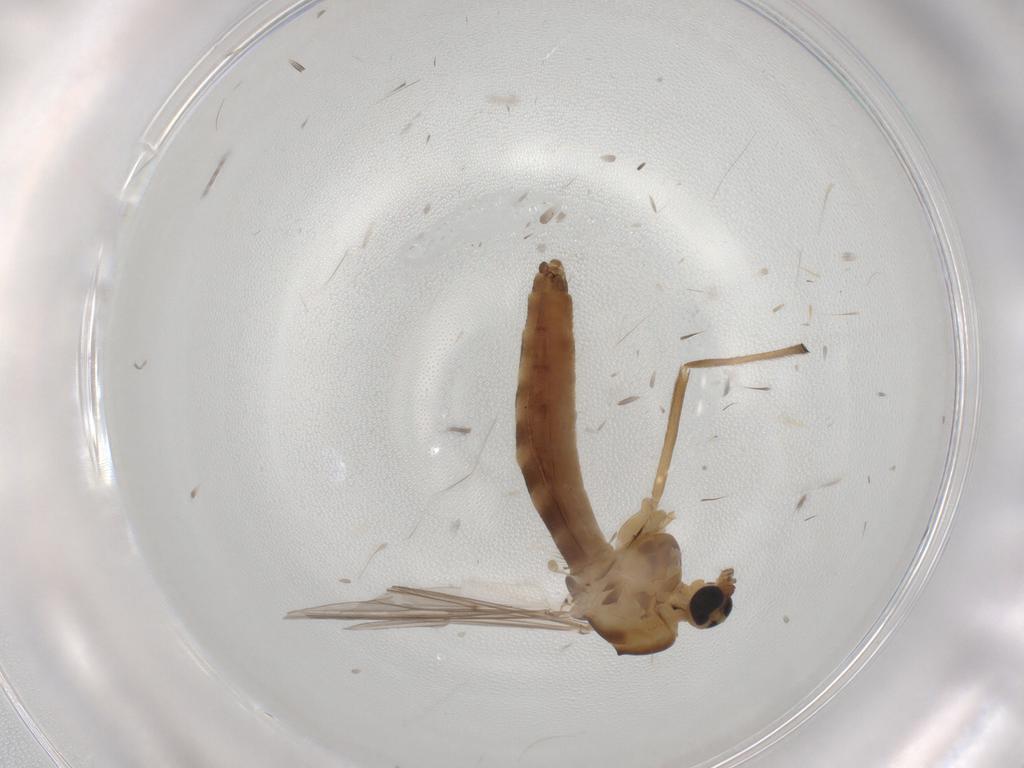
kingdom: Animalia
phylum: Arthropoda
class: Insecta
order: Diptera
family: Chironomidae
